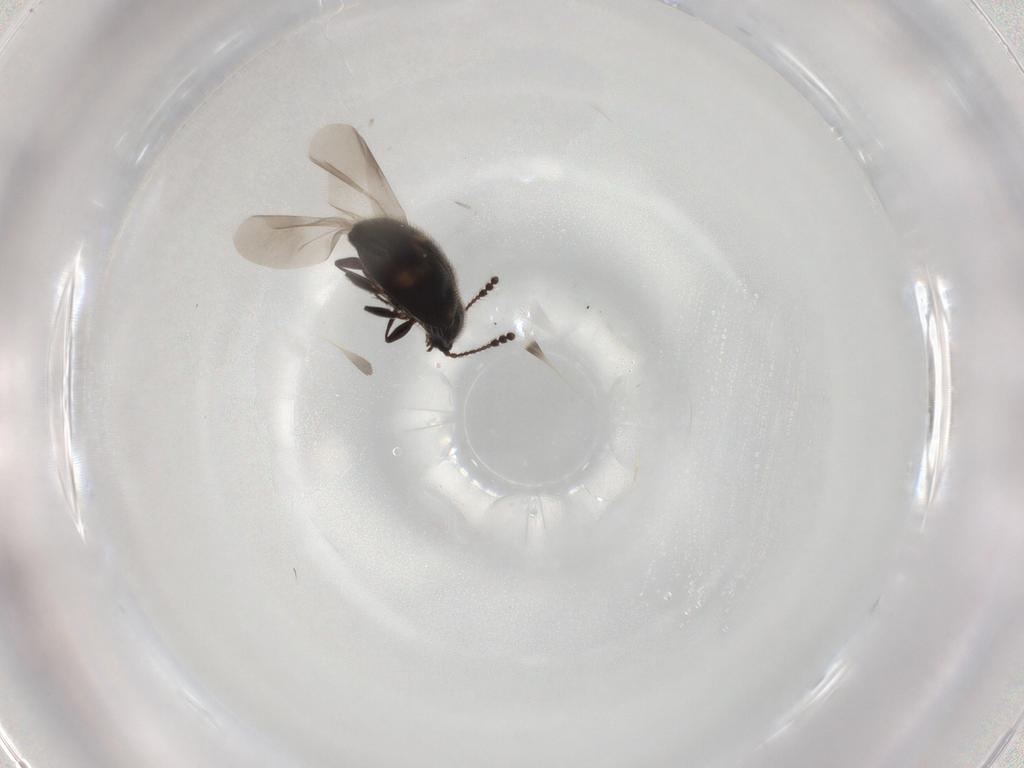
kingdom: Animalia
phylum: Arthropoda
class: Insecta
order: Coleoptera
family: Erotylidae
